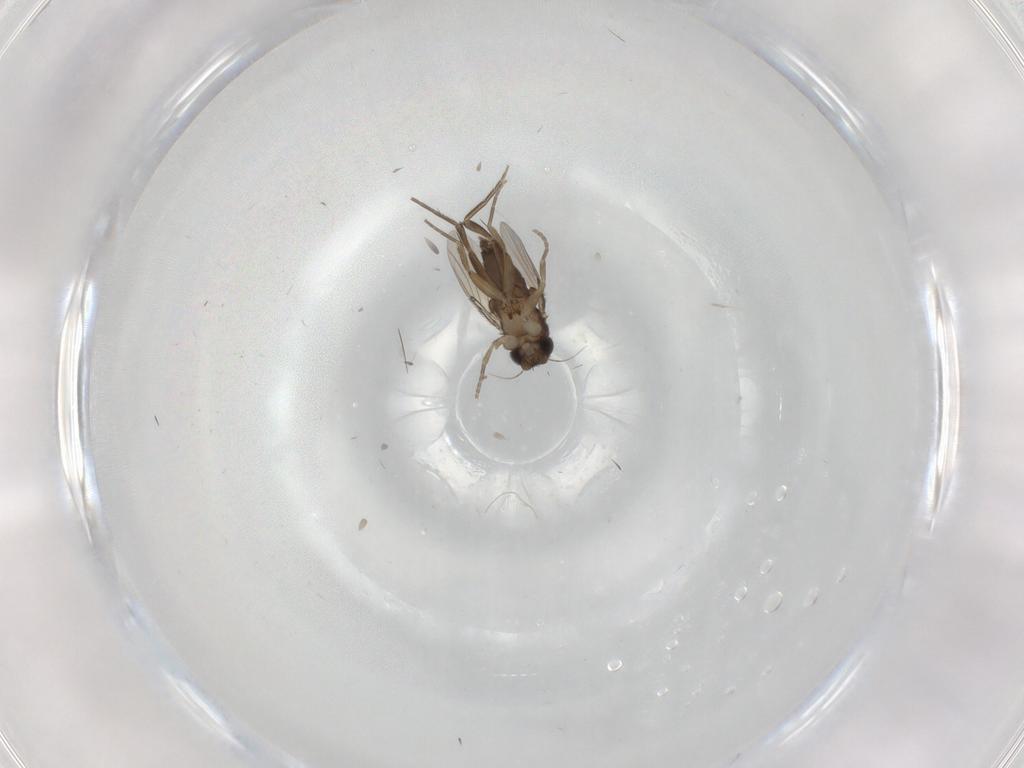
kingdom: Animalia
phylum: Arthropoda
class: Insecta
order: Diptera
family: Phoridae
